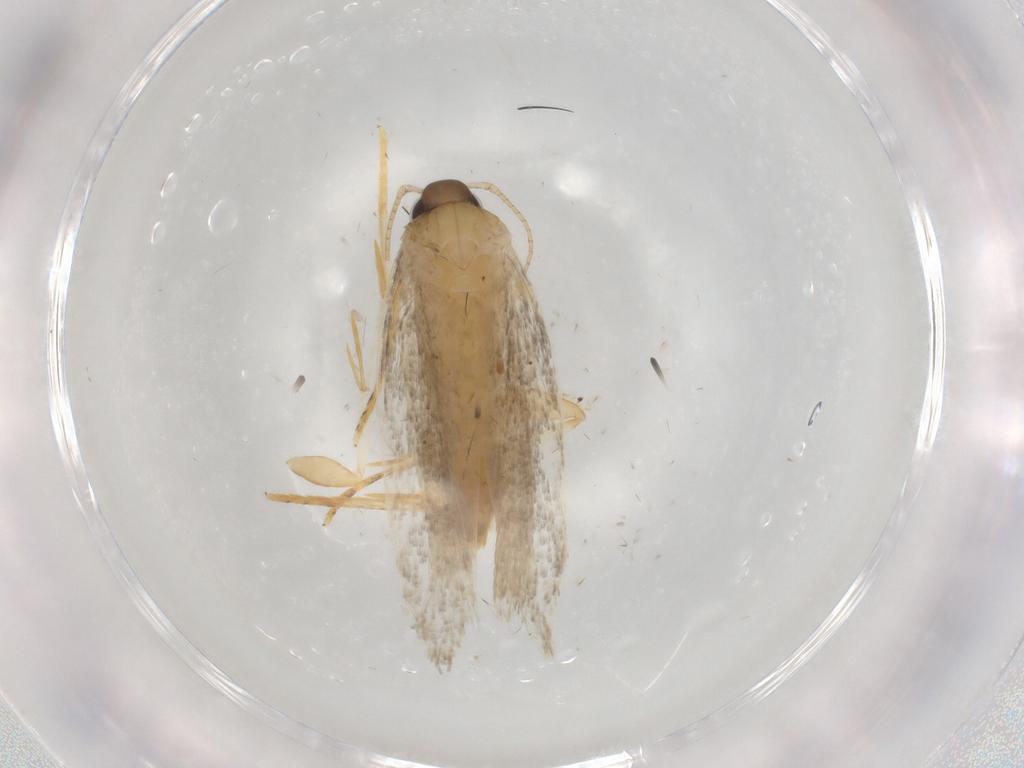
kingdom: Animalia
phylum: Arthropoda
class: Insecta
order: Lepidoptera
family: Autostichidae
